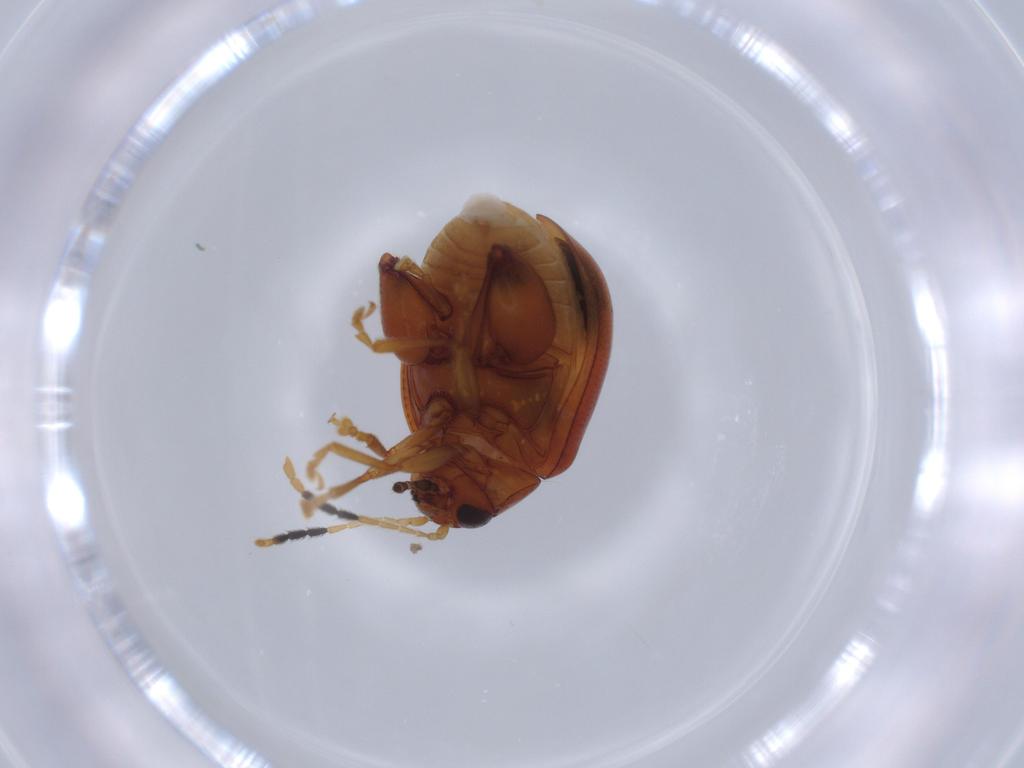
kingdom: Animalia
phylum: Arthropoda
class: Insecta
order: Coleoptera
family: Chrysomelidae
